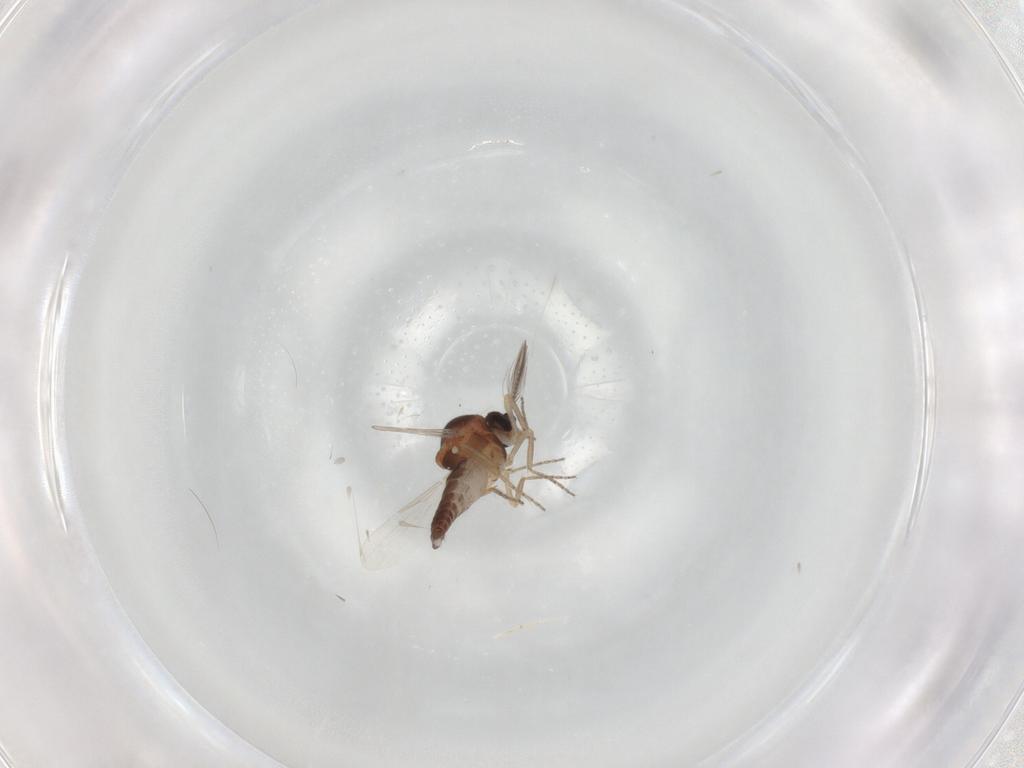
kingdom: Animalia
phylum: Arthropoda
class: Insecta
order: Diptera
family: Ceratopogonidae
